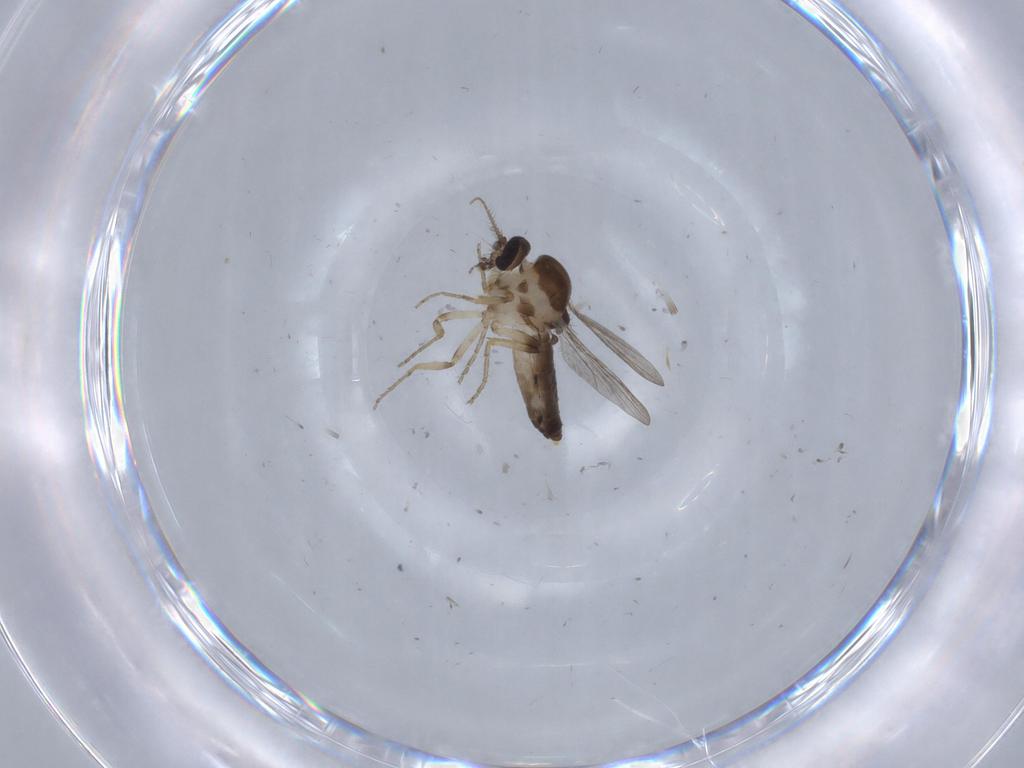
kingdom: Animalia
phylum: Arthropoda
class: Insecta
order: Diptera
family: Ceratopogonidae
